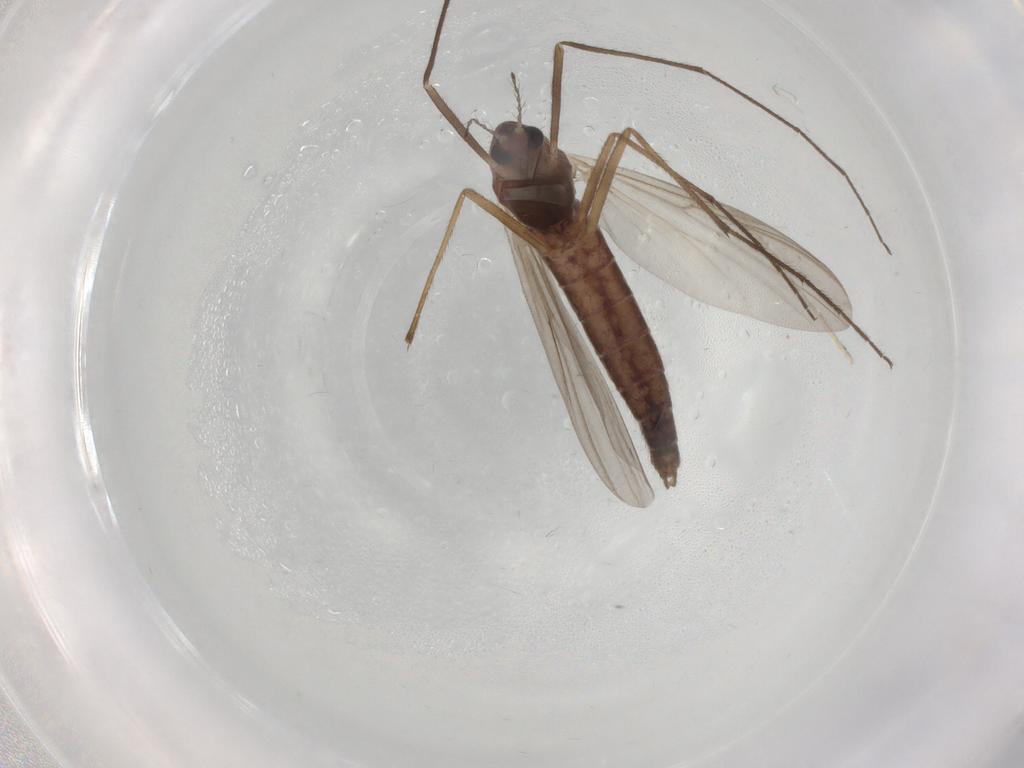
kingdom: Animalia
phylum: Arthropoda
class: Insecta
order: Diptera
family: Chironomidae
